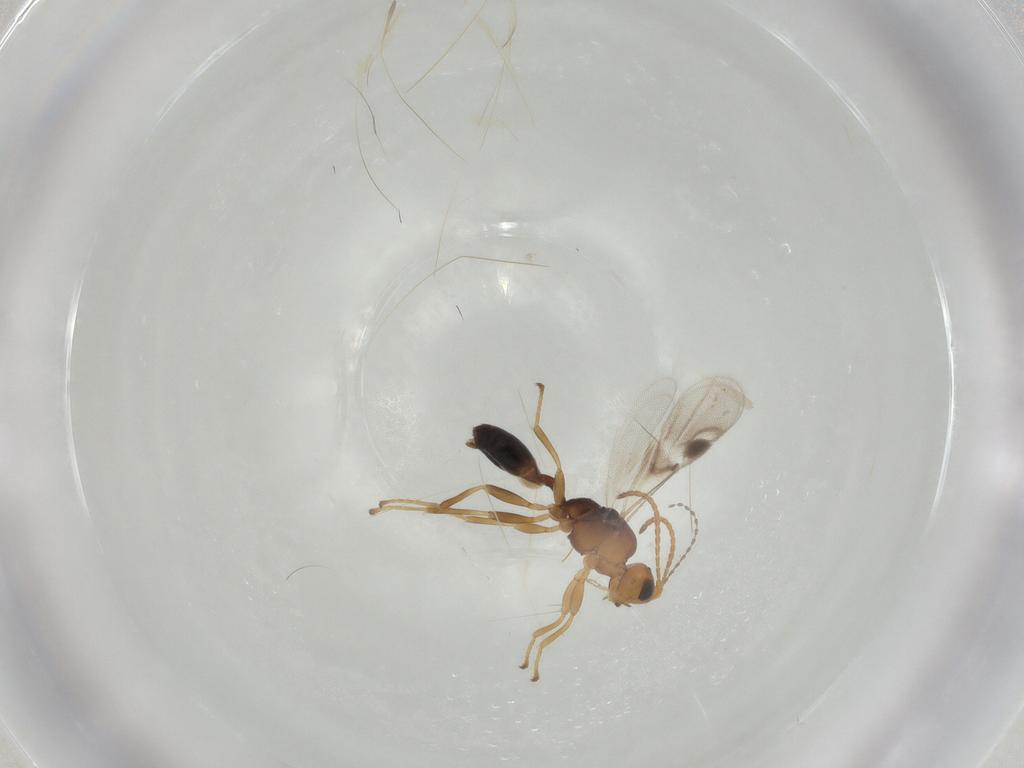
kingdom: Animalia
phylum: Arthropoda
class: Insecta
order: Hymenoptera
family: Braconidae
